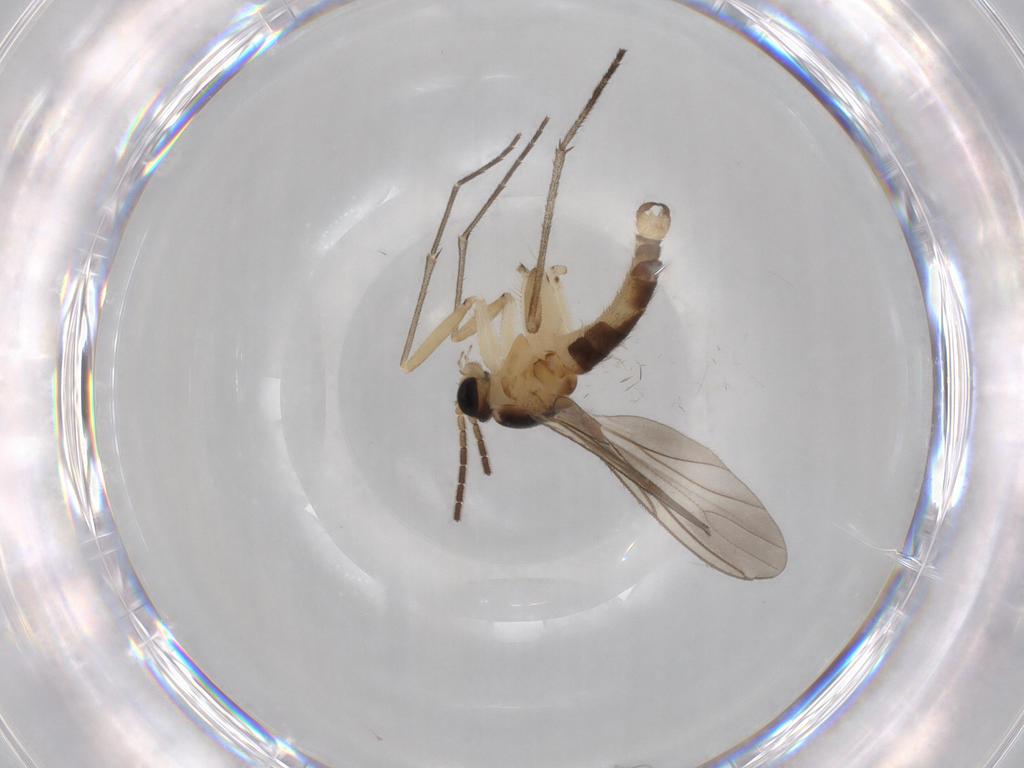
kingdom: Animalia
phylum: Arthropoda
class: Insecta
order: Diptera
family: Sciaridae
